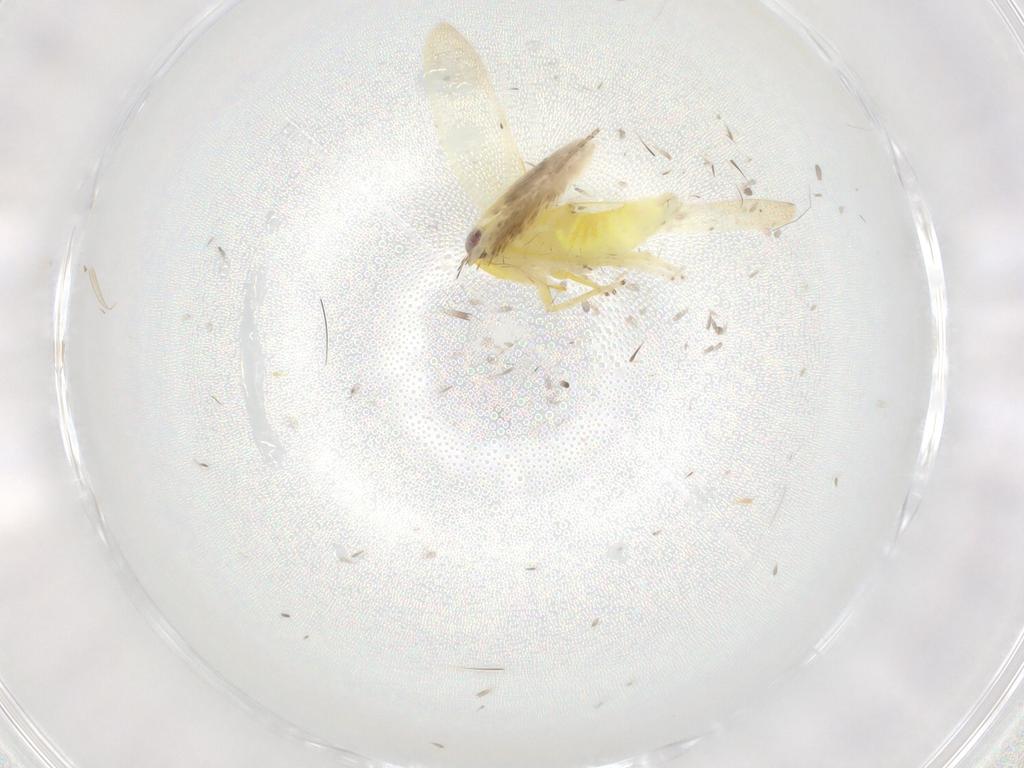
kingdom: Animalia
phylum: Arthropoda
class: Insecta
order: Hemiptera
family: Cicadellidae
